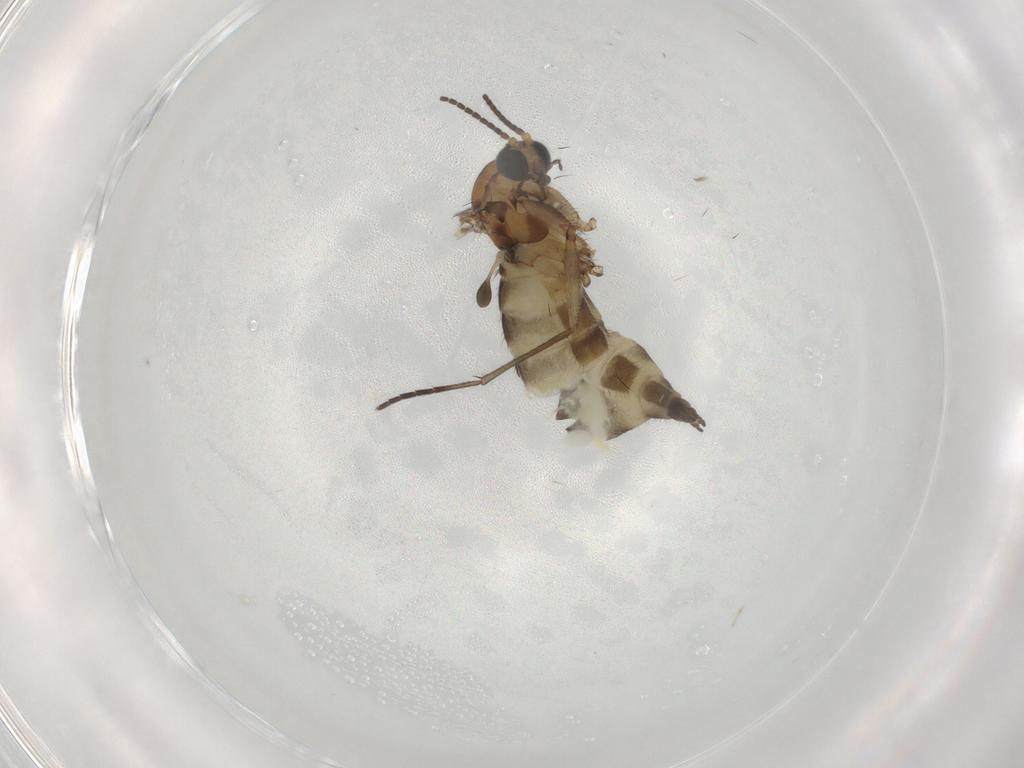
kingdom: Animalia
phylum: Arthropoda
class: Insecta
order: Diptera
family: Sciaridae
